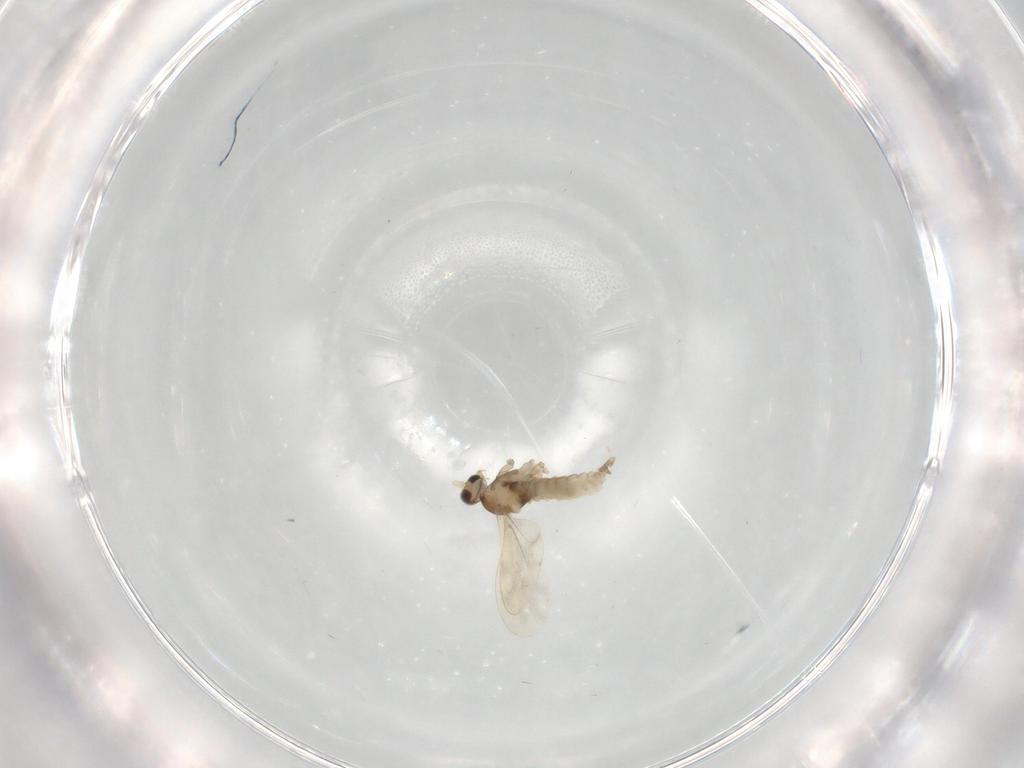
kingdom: Animalia
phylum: Arthropoda
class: Insecta
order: Diptera
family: Cecidomyiidae
